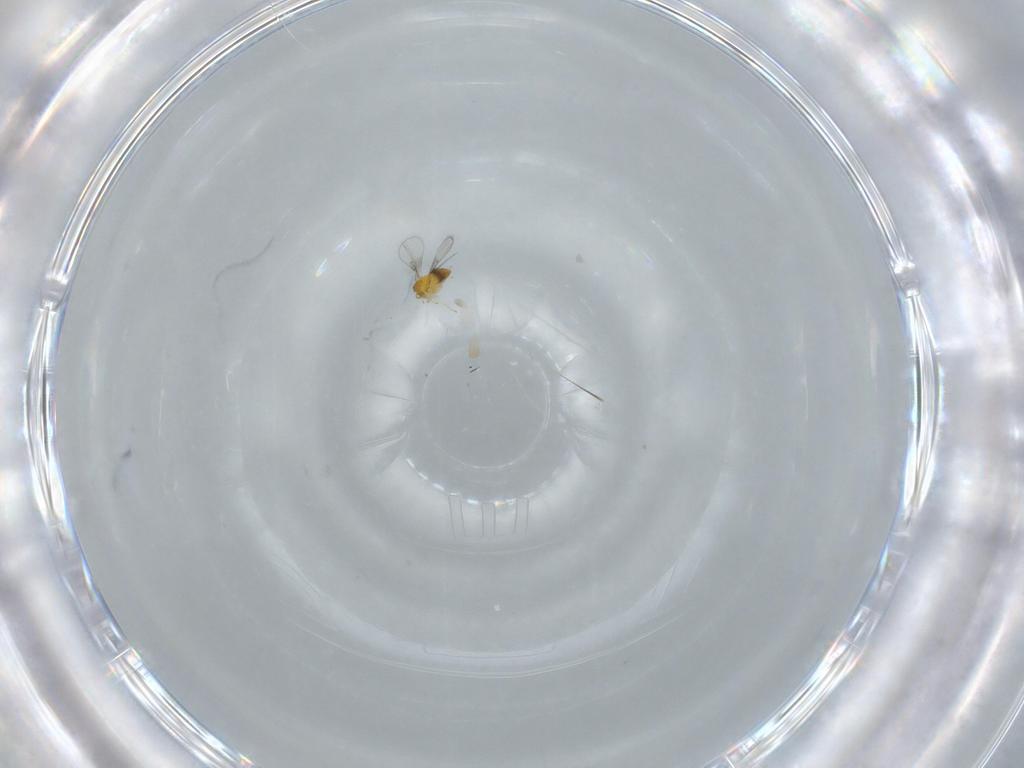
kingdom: Animalia
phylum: Arthropoda
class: Insecta
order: Hymenoptera
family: Trichogrammatidae
